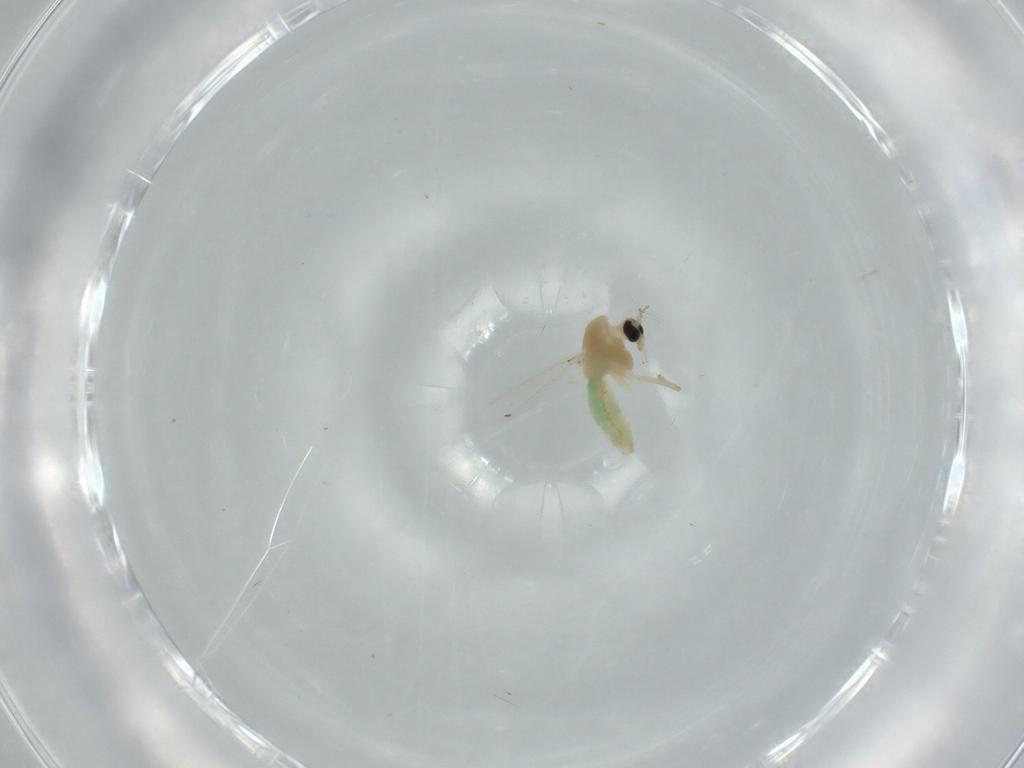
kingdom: Animalia
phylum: Arthropoda
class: Insecta
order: Diptera
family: Chironomidae
